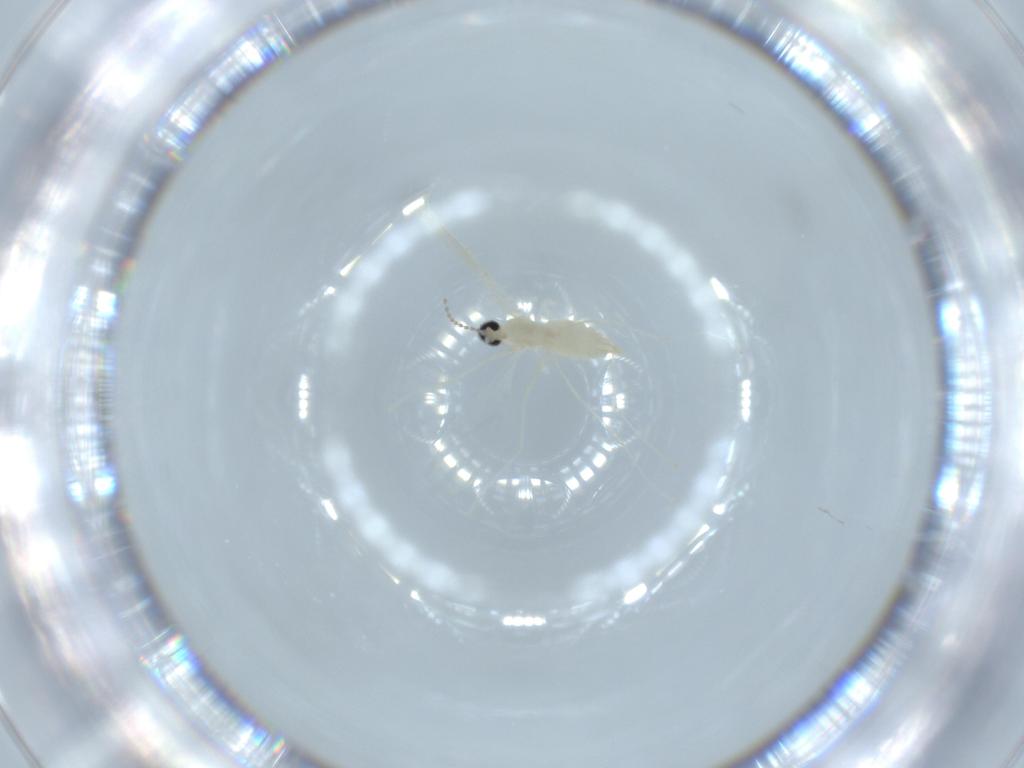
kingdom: Animalia
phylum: Arthropoda
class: Insecta
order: Diptera
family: Cecidomyiidae
